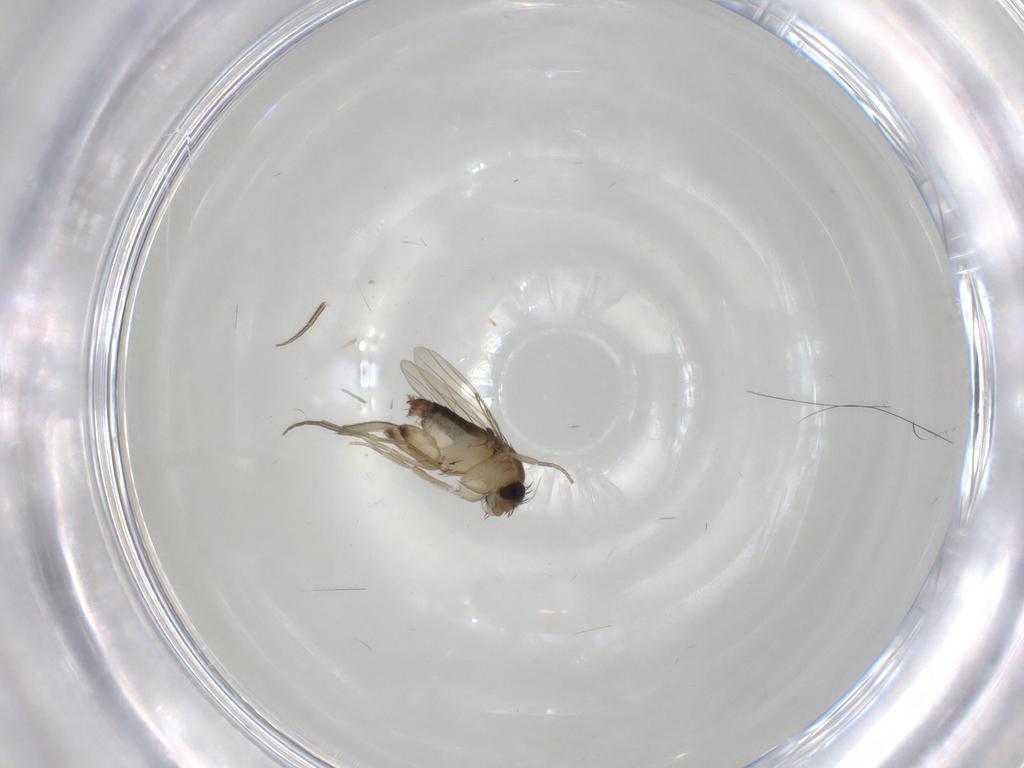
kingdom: Animalia
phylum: Arthropoda
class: Insecta
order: Diptera
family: Phoridae
